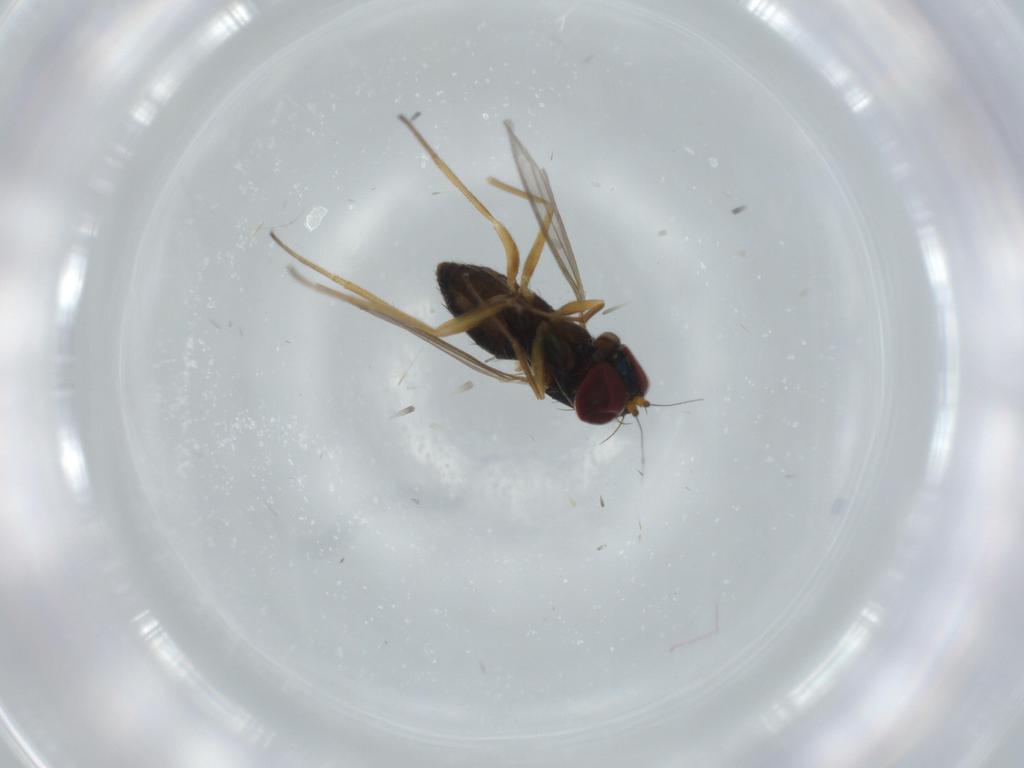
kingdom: Animalia
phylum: Arthropoda
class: Insecta
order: Diptera
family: Dolichopodidae
